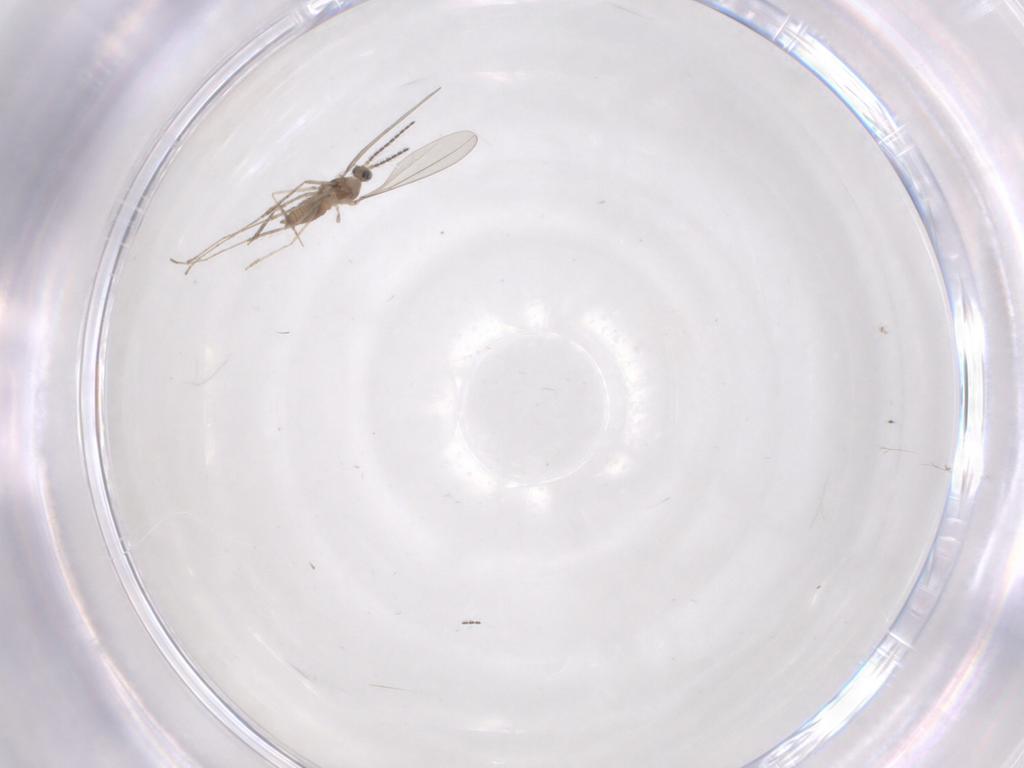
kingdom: Animalia
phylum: Arthropoda
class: Insecta
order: Diptera
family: Cecidomyiidae
